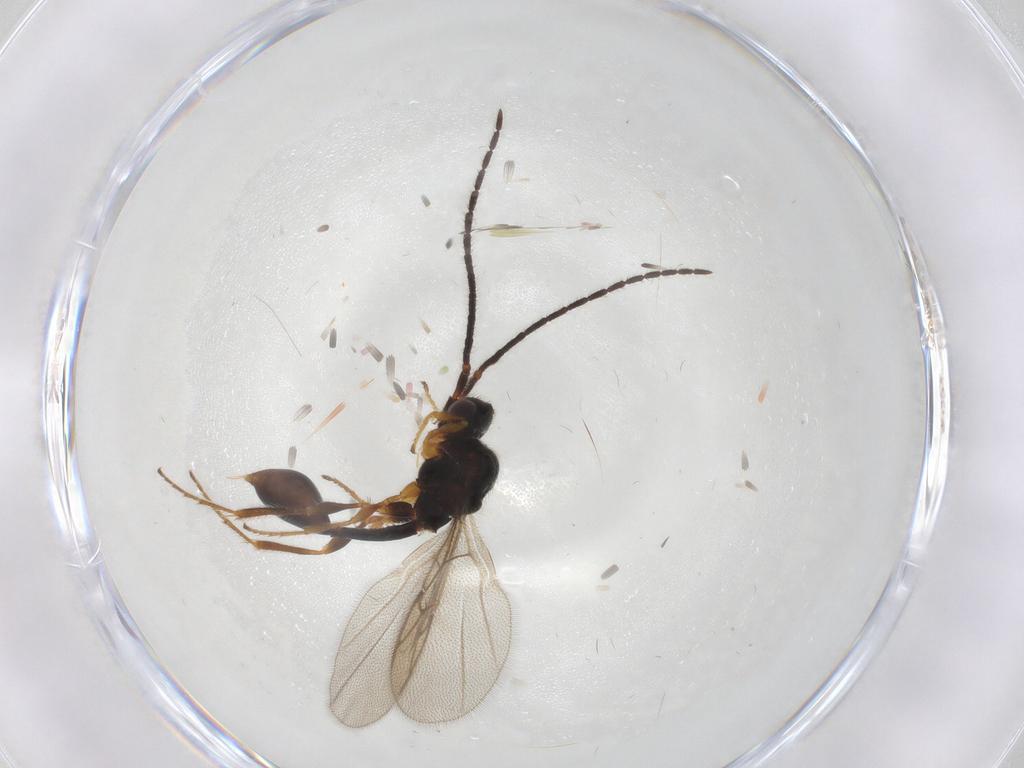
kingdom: Animalia
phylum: Arthropoda
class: Insecta
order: Hymenoptera
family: Diapriidae
